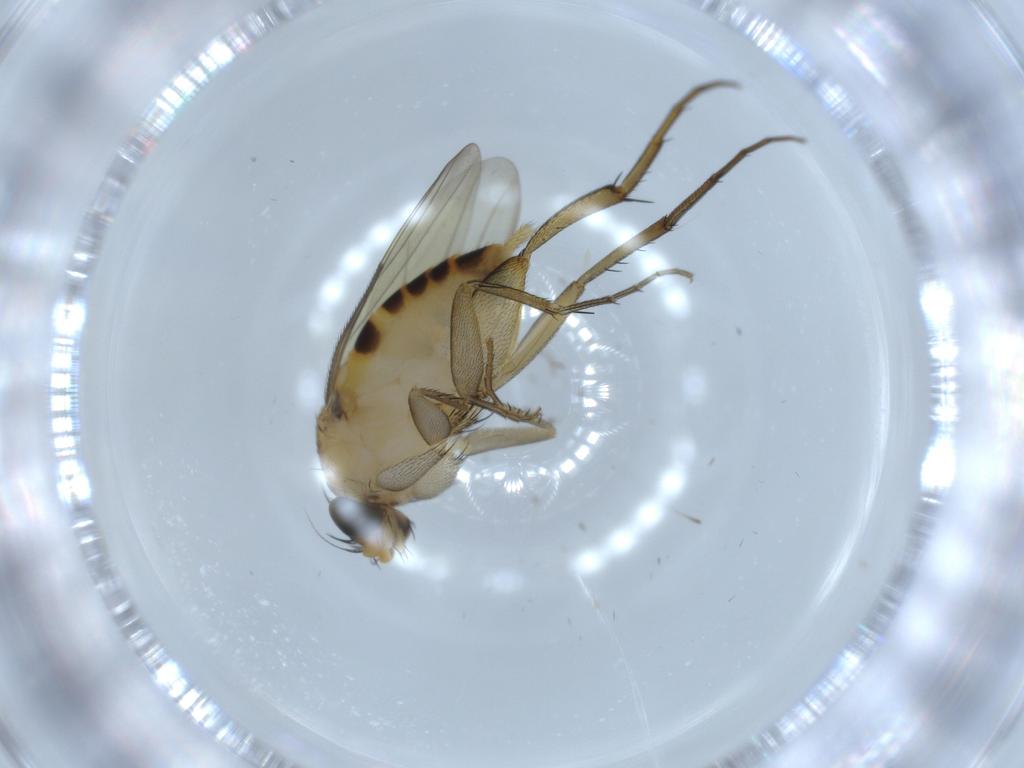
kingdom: Animalia
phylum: Arthropoda
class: Insecta
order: Diptera
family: Phoridae
